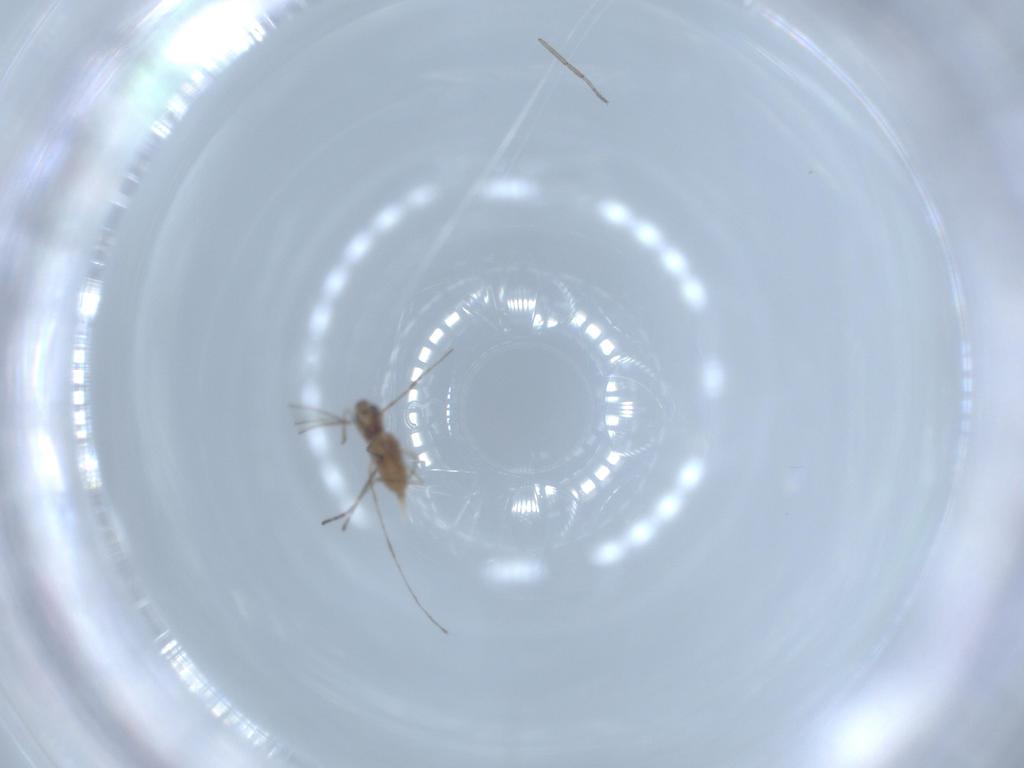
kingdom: Animalia
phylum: Arthropoda
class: Insecta
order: Diptera
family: Cecidomyiidae
